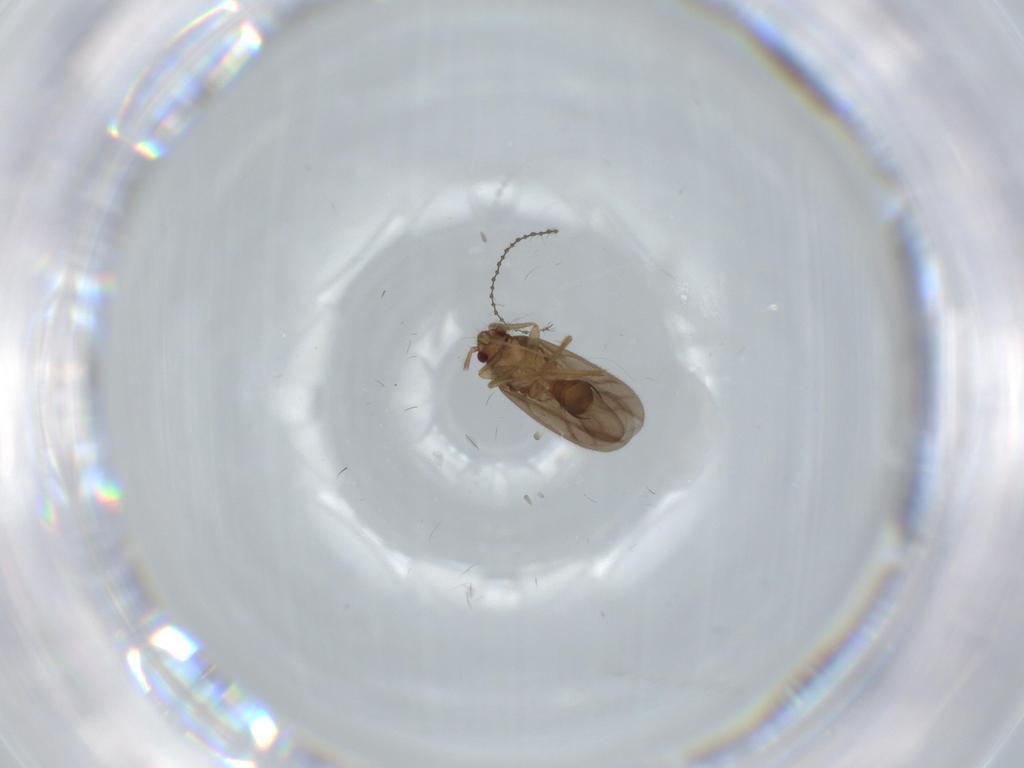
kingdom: Animalia
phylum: Arthropoda
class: Insecta
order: Hemiptera
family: Ceratocombidae
